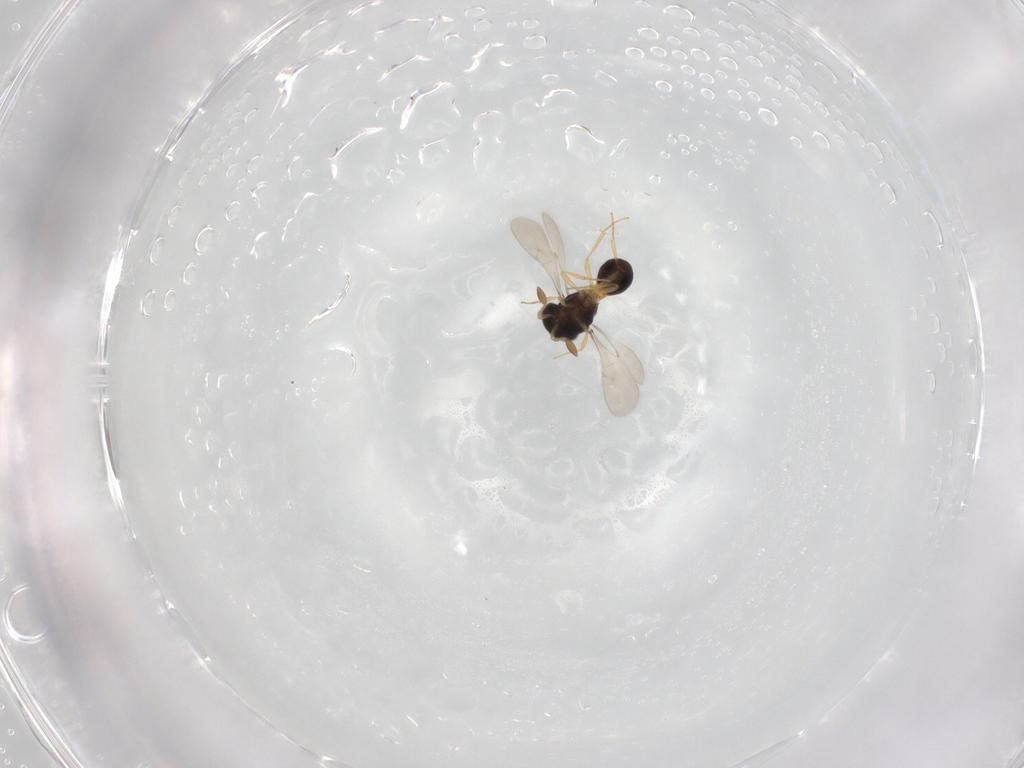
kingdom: Animalia
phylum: Arthropoda
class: Insecta
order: Hymenoptera
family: Scelionidae
